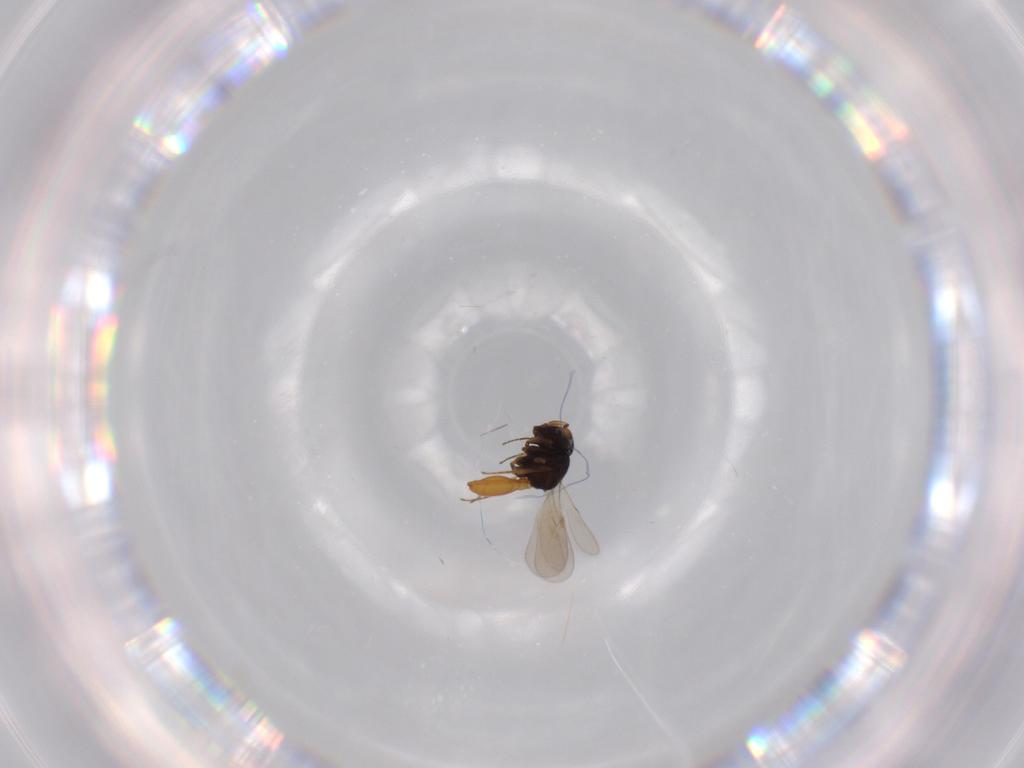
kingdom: Animalia
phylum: Arthropoda
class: Insecta
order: Hymenoptera
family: Scelionidae
